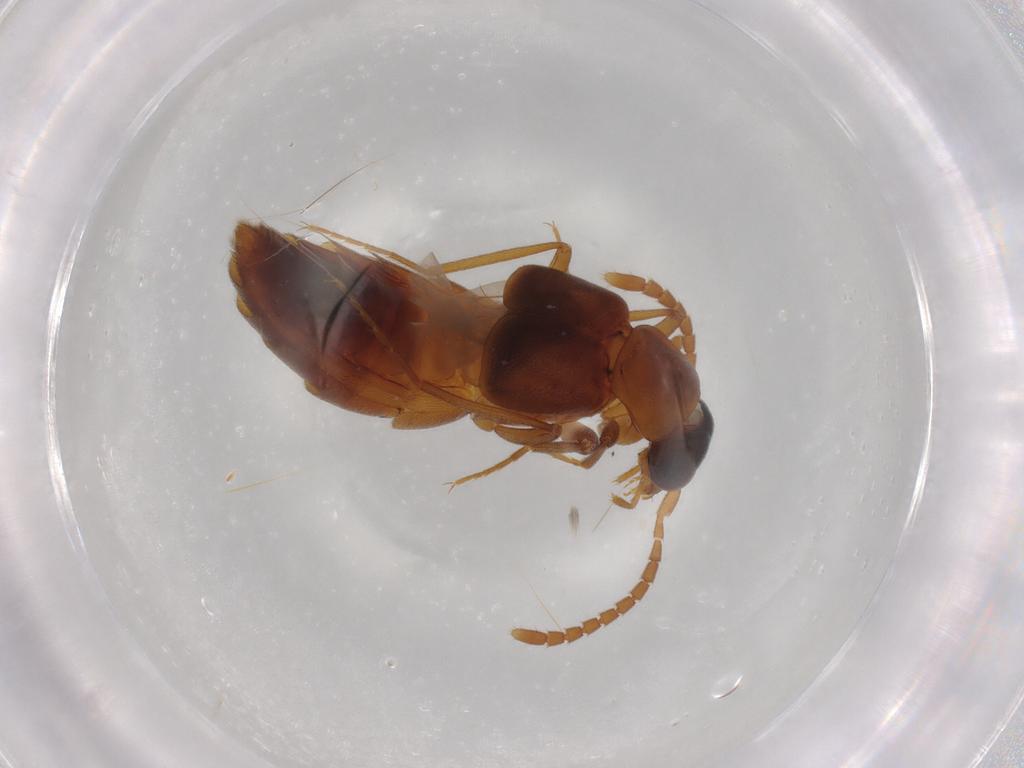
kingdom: Animalia
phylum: Arthropoda
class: Insecta
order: Coleoptera
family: Staphylinidae
